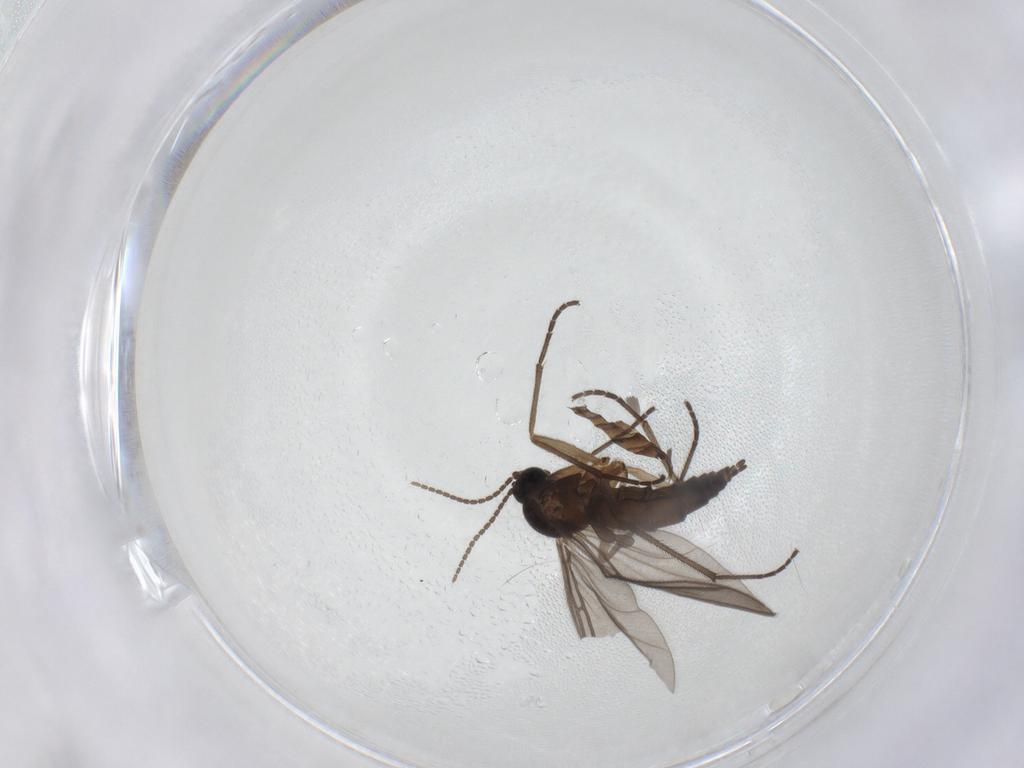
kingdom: Animalia
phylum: Arthropoda
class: Insecta
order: Diptera
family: Sciaridae
